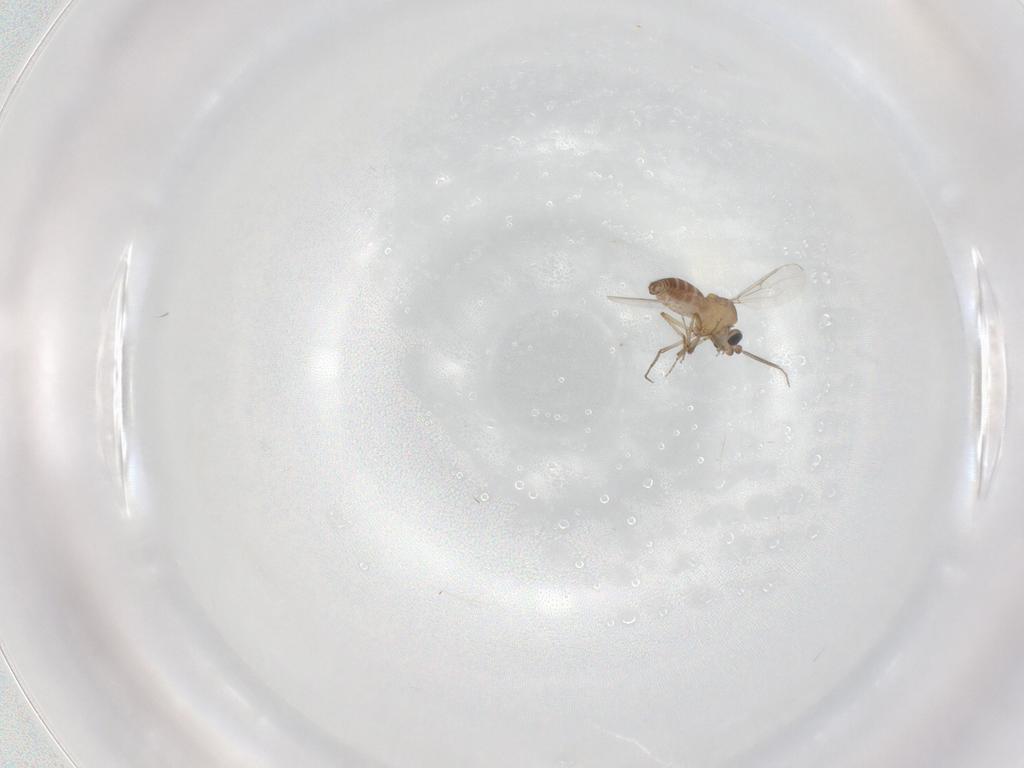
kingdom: Animalia
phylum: Arthropoda
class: Insecta
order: Diptera
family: Ceratopogonidae
